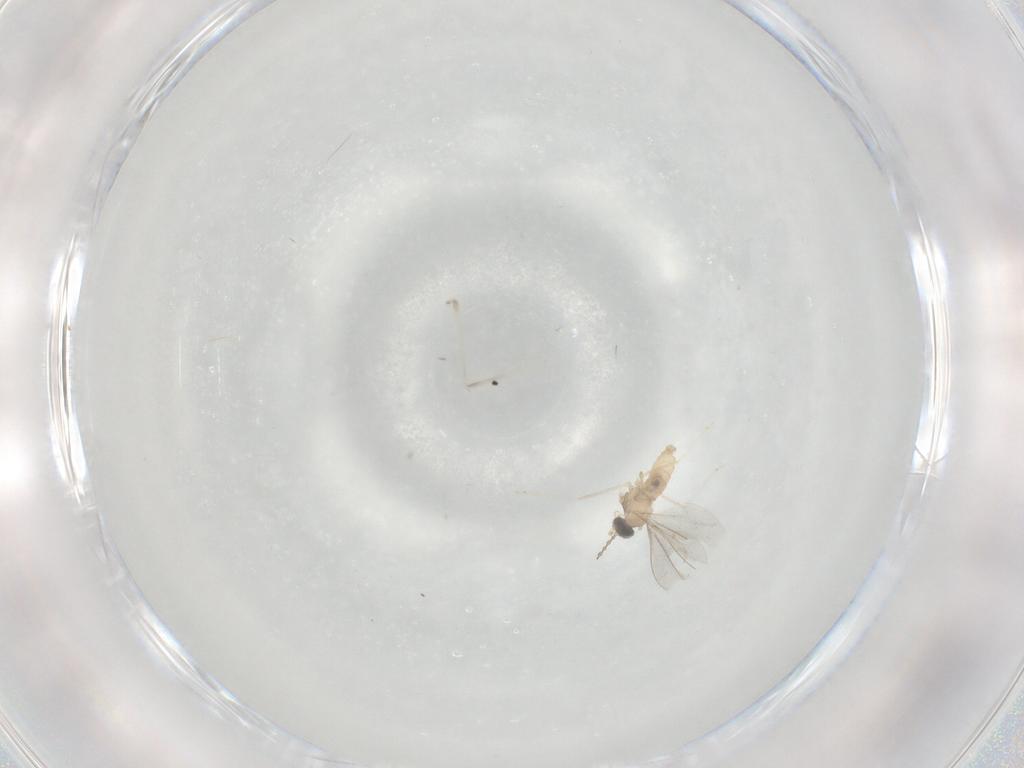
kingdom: Animalia
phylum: Arthropoda
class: Insecta
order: Diptera
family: Cecidomyiidae
